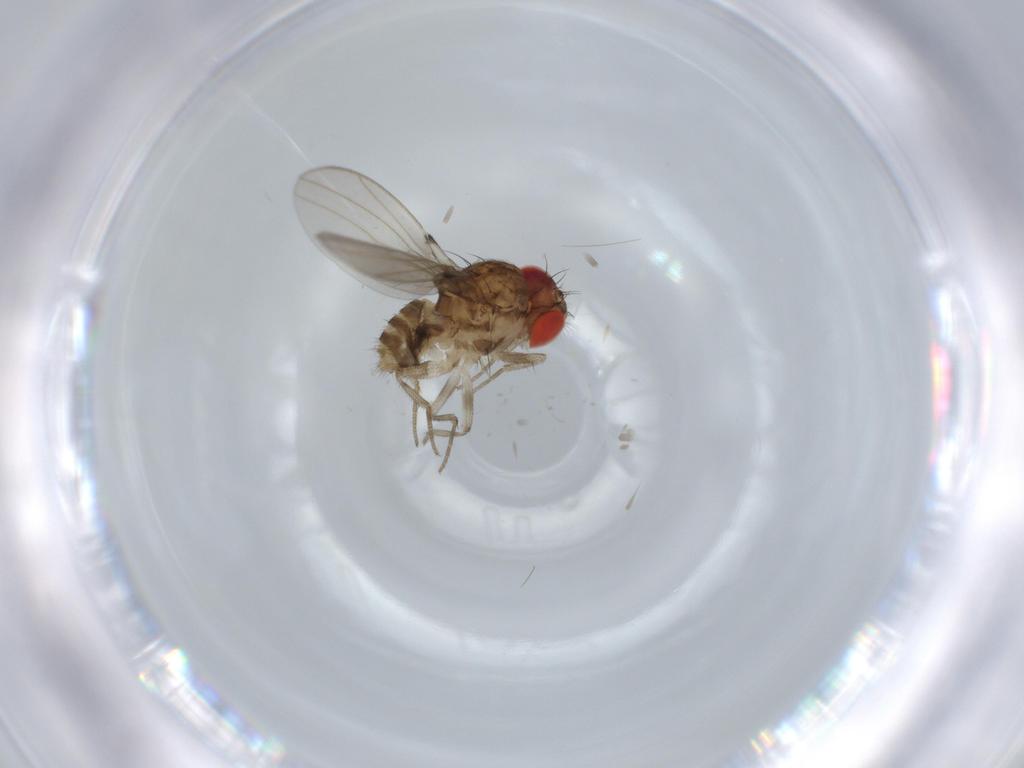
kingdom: Animalia
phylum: Arthropoda
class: Insecta
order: Diptera
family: Drosophilidae
